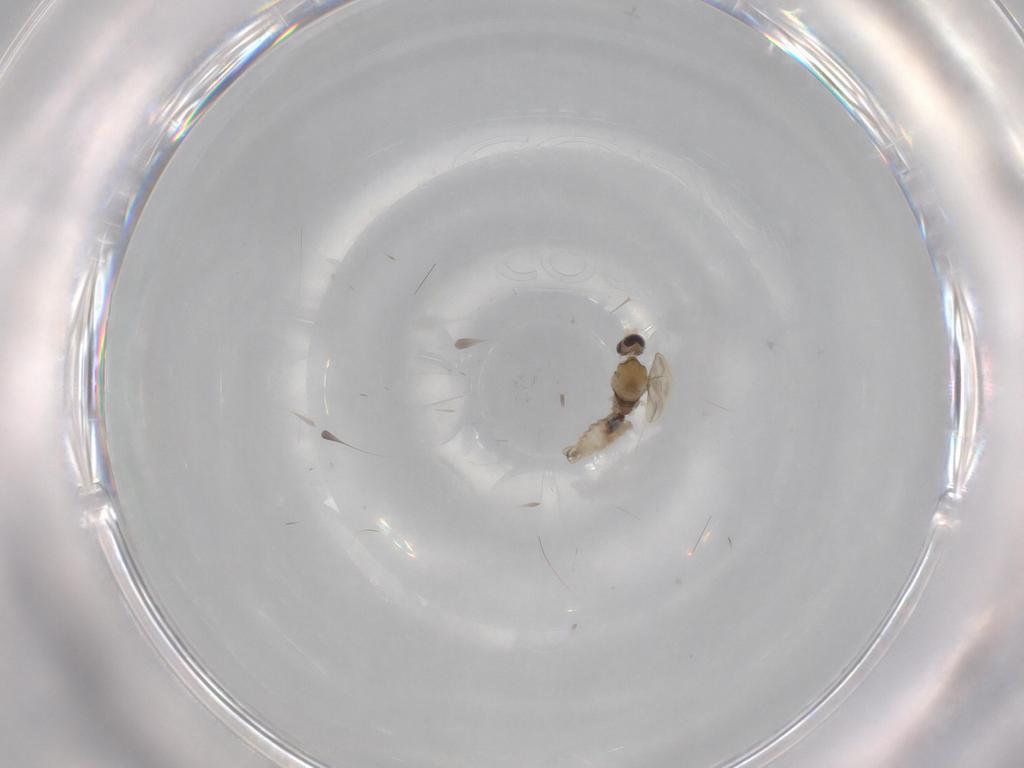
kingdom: Animalia
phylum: Arthropoda
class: Insecta
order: Diptera
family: Cecidomyiidae
